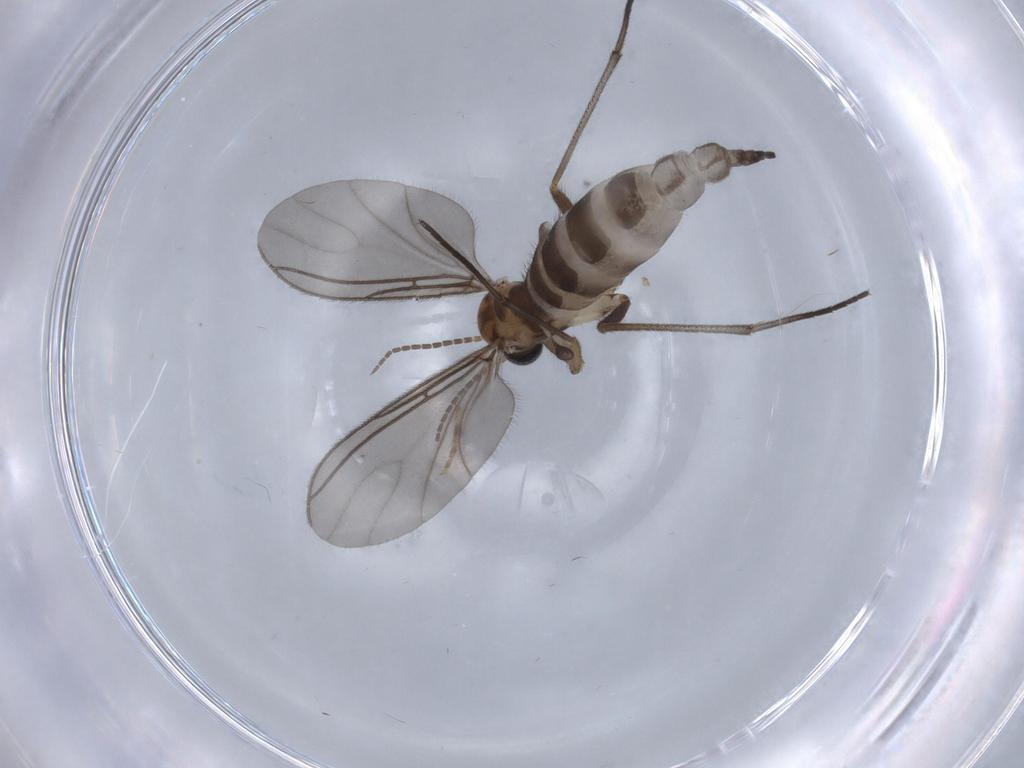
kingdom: Animalia
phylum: Arthropoda
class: Insecta
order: Diptera
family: Sciaridae
